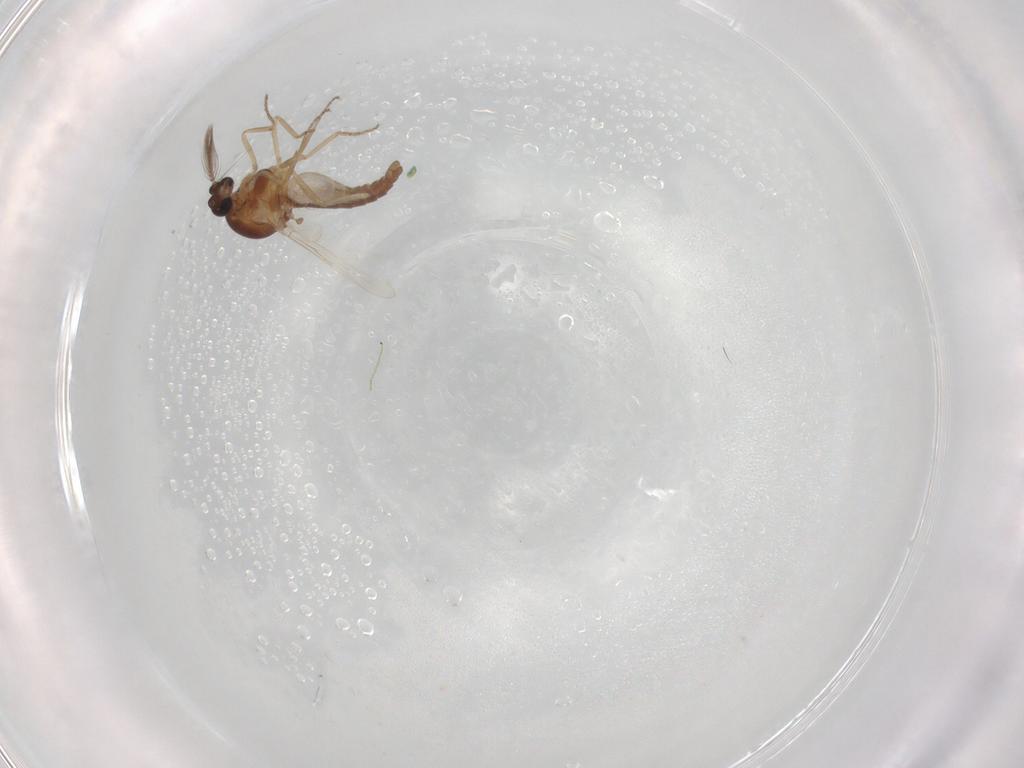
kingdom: Animalia
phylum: Arthropoda
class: Insecta
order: Diptera
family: Ceratopogonidae
